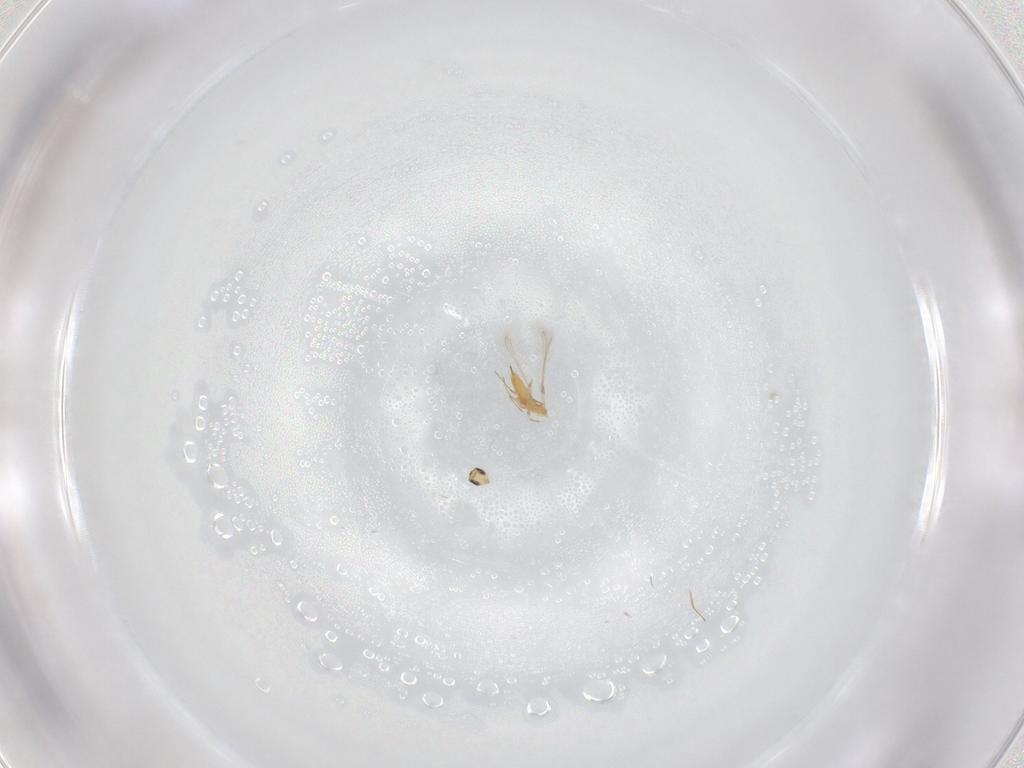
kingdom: Animalia
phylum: Arthropoda
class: Insecta
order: Hymenoptera
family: Mymaridae
